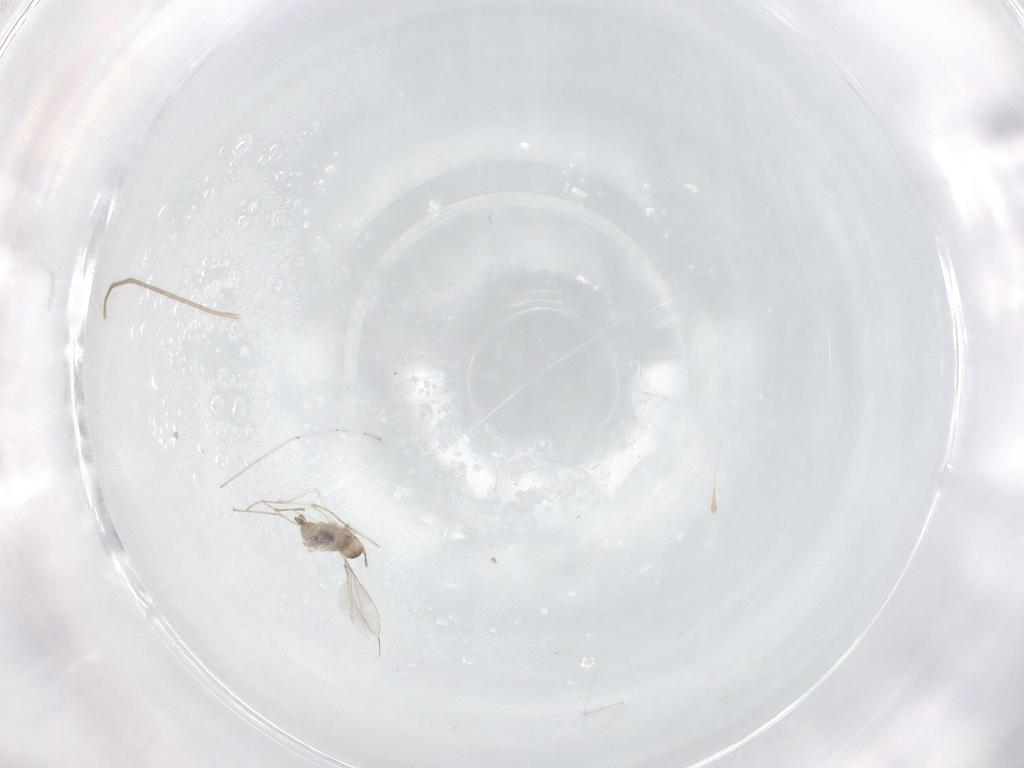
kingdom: Animalia
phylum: Arthropoda
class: Insecta
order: Diptera
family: Cecidomyiidae
